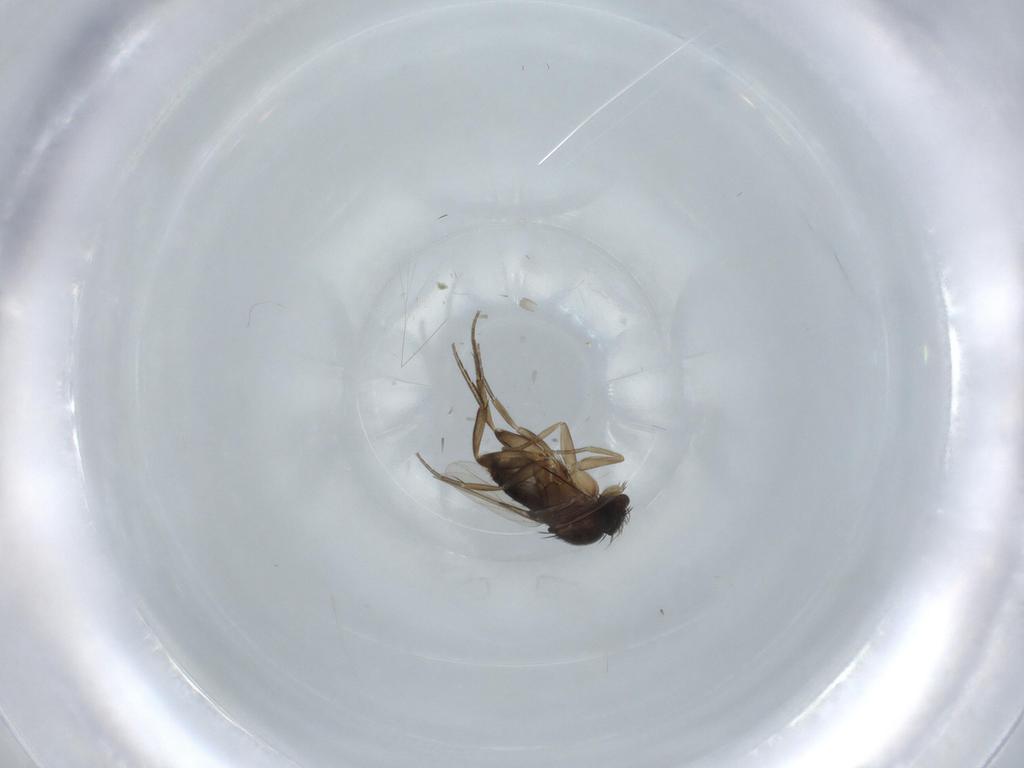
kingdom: Animalia
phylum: Arthropoda
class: Insecta
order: Diptera
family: Phoridae
